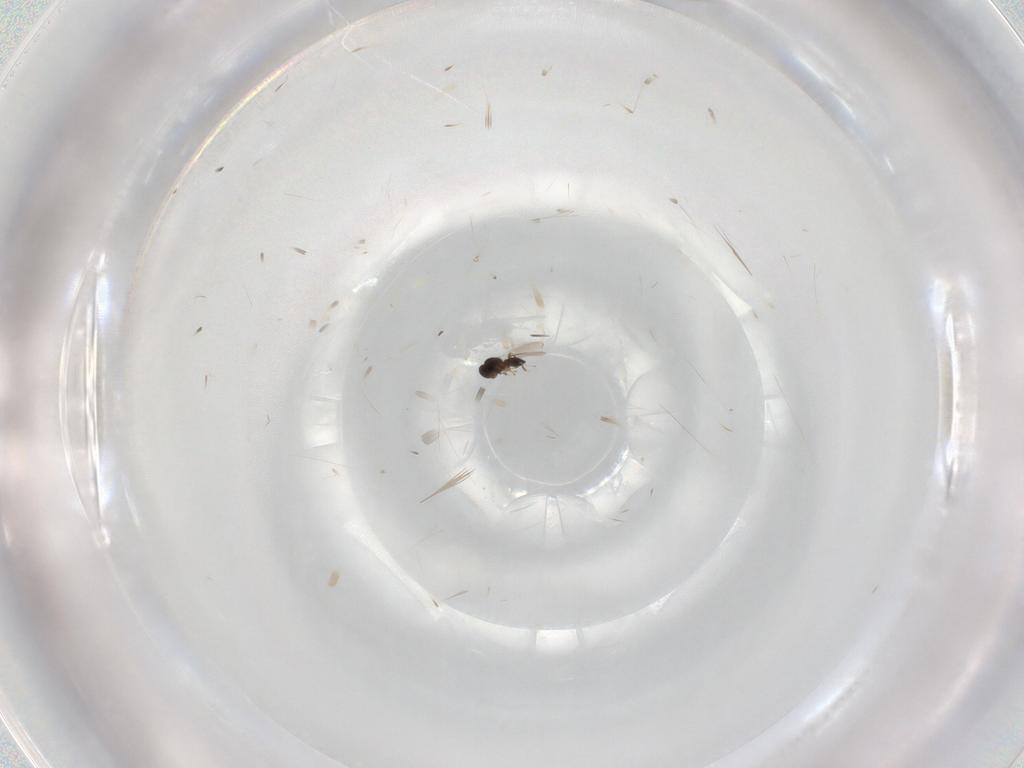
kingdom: Animalia
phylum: Arthropoda
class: Insecta
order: Hymenoptera
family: Platygastridae
